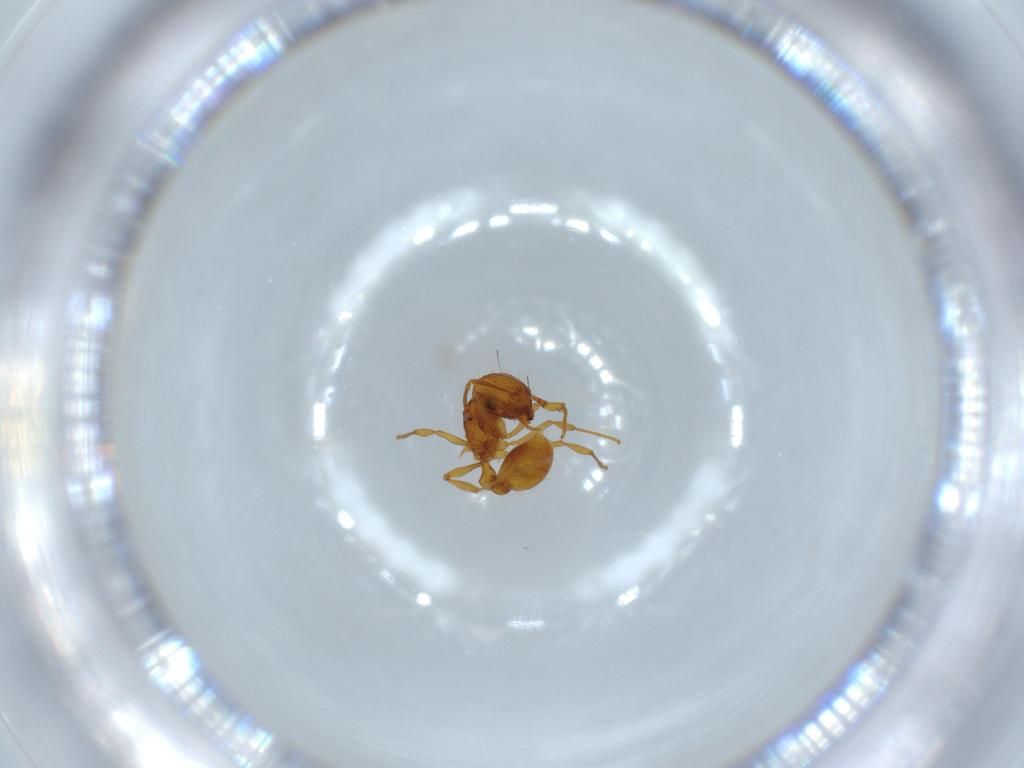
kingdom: Animalia
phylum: Arthropoda
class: Insecta
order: Hymenoptera
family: Formicidae
